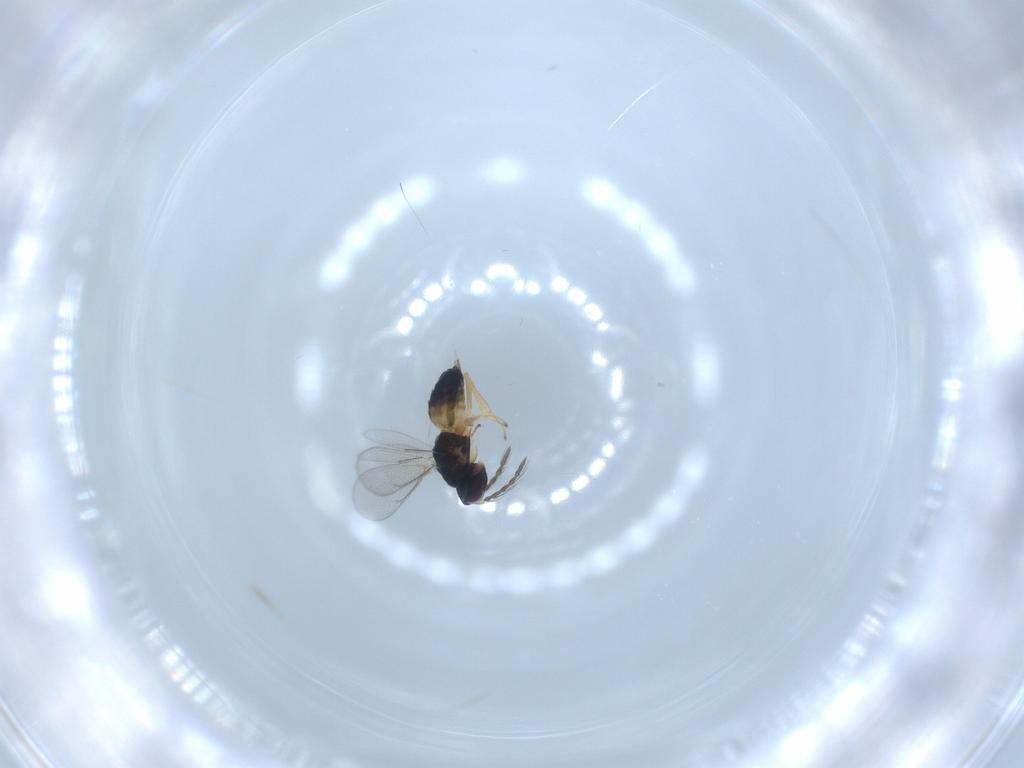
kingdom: Animalia
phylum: Arthropoda
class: Insecta
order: Hymenoptera
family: Eulophidae
